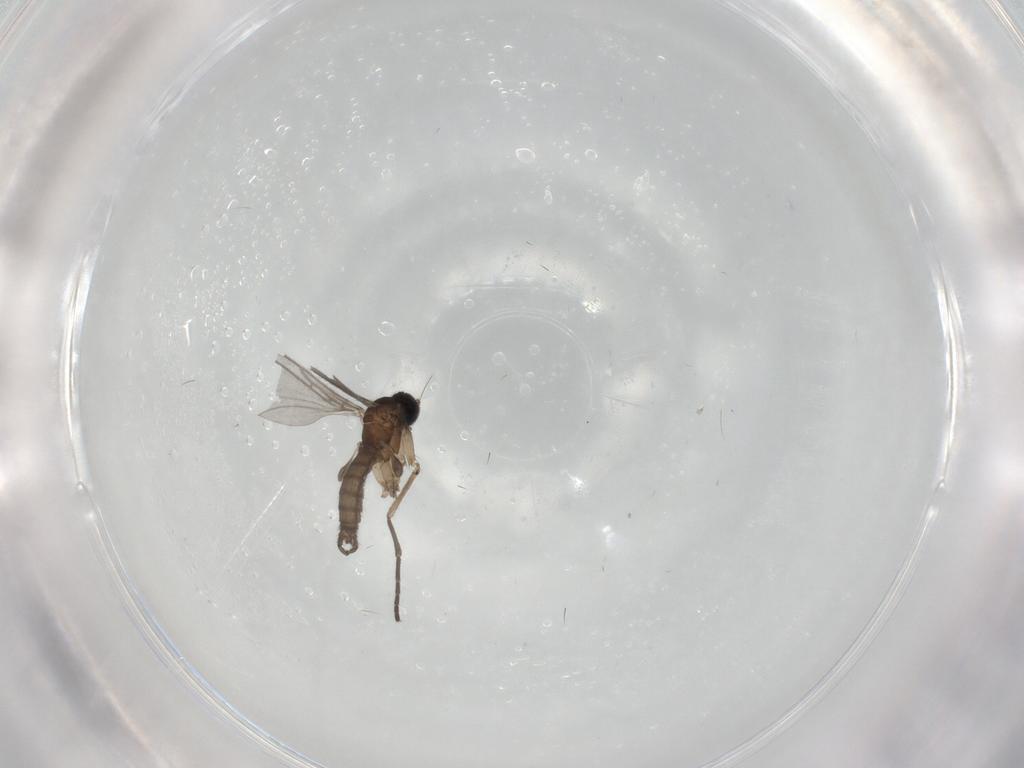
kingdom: Animalia
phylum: Arthropoda
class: Insecta
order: Diptera
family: Sciaridae
